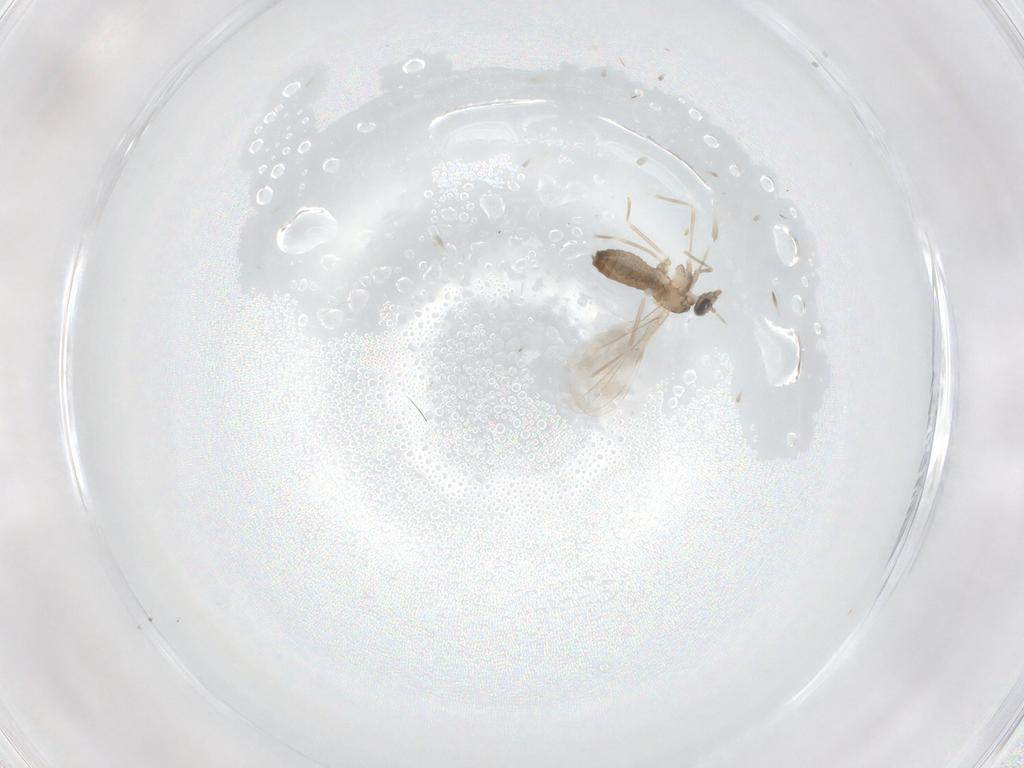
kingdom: Animalia
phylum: Arthropoda
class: Insecta
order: Diptera
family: Cecidomyiidae
